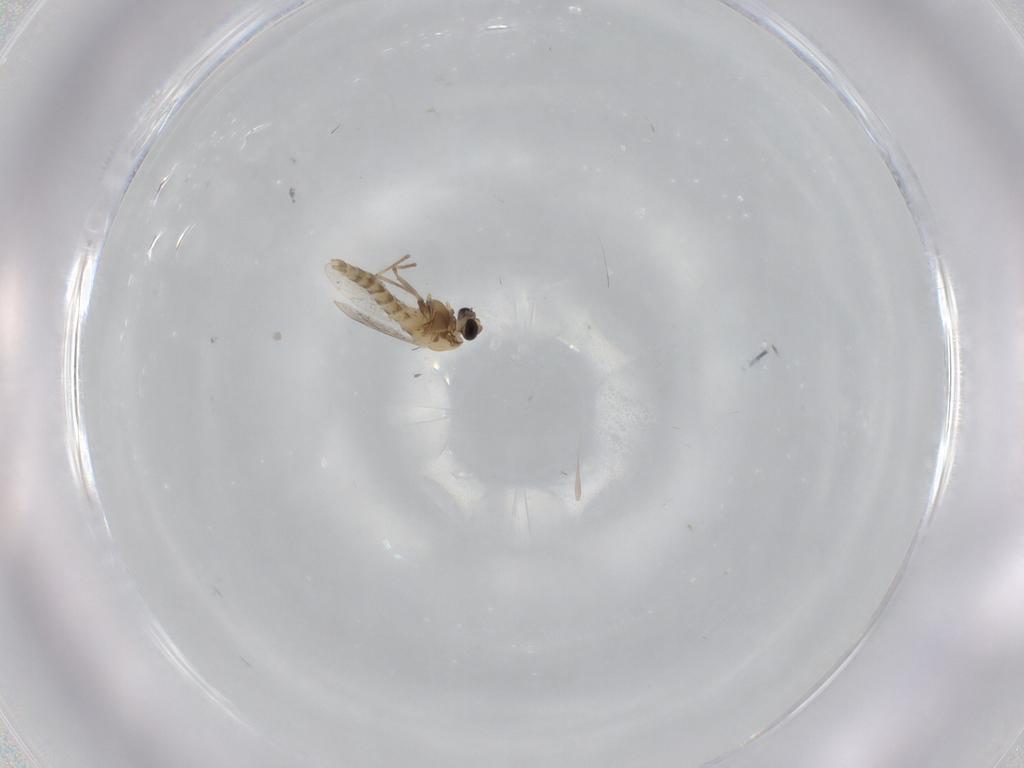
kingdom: Animalia
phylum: Arthropoda
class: Insecta
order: Diptera
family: Chironomidae
